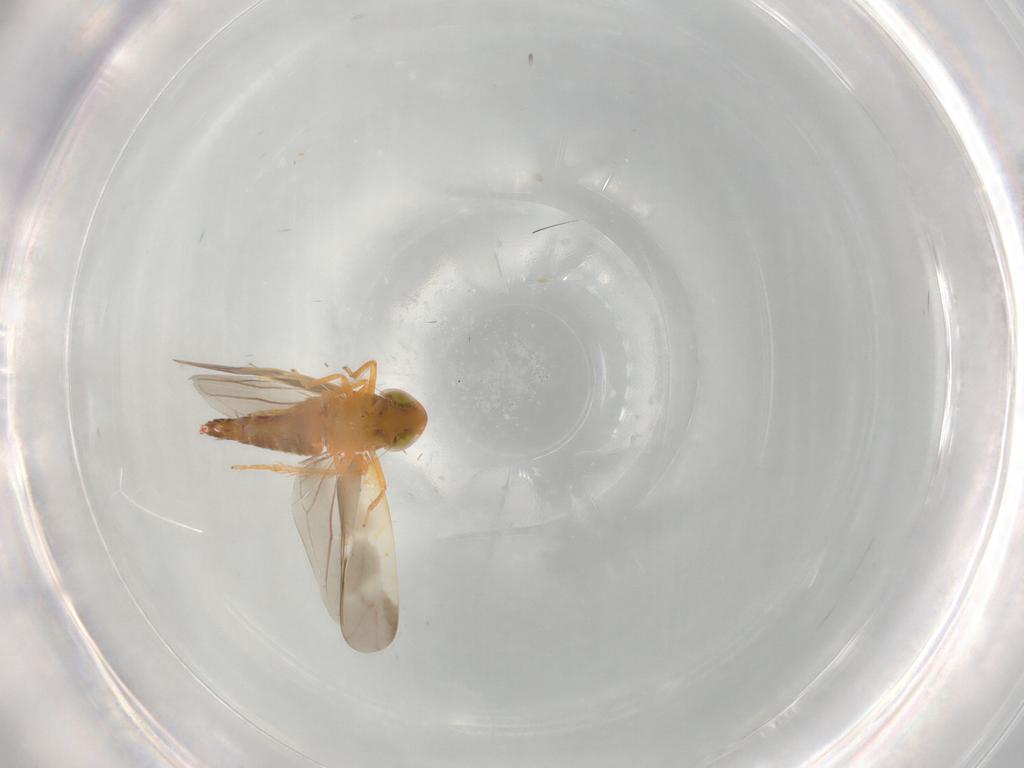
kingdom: Animalia
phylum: Arthropoda
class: Insecta
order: Hemiptera
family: Cicadellidae
